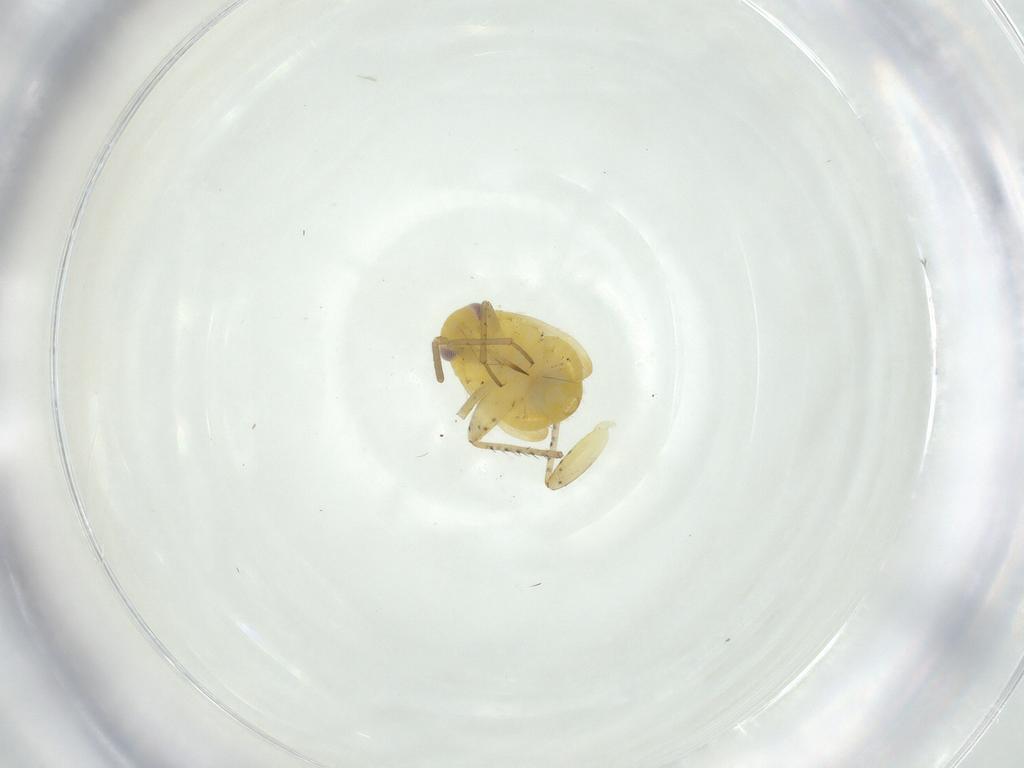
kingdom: Animalia
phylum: Arthropoda
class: Insecta
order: Hemiptera
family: Miridae
